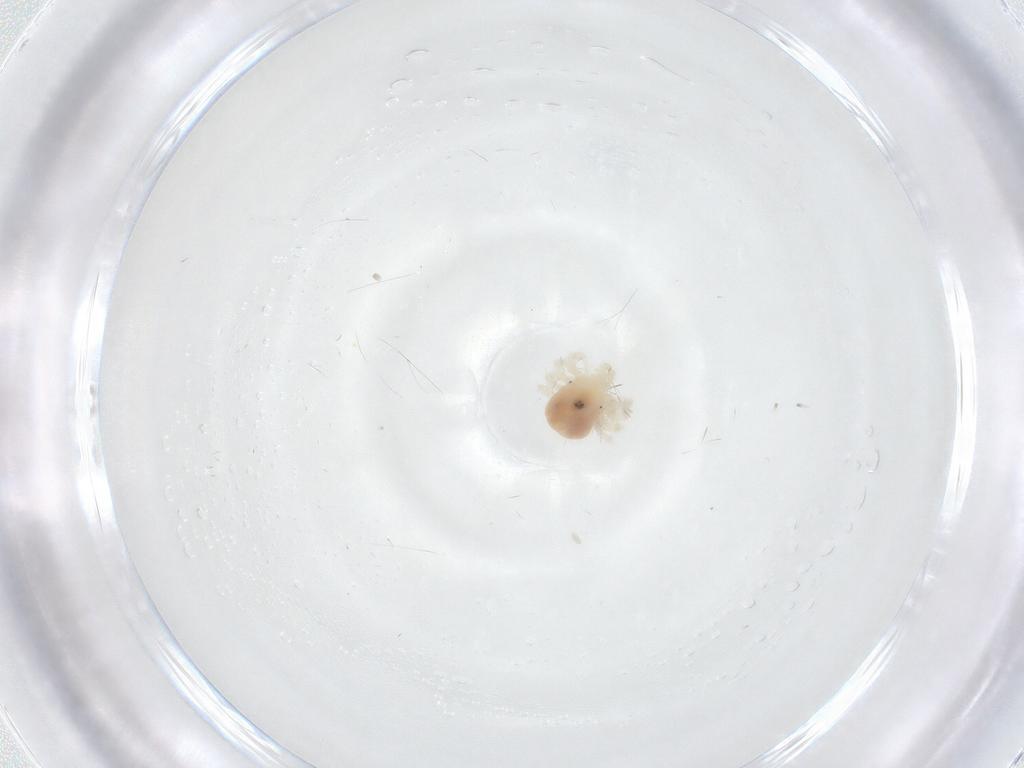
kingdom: Animalia
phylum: Arthropoda
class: Arachnida
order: Trombidiformes
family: Anystidae
